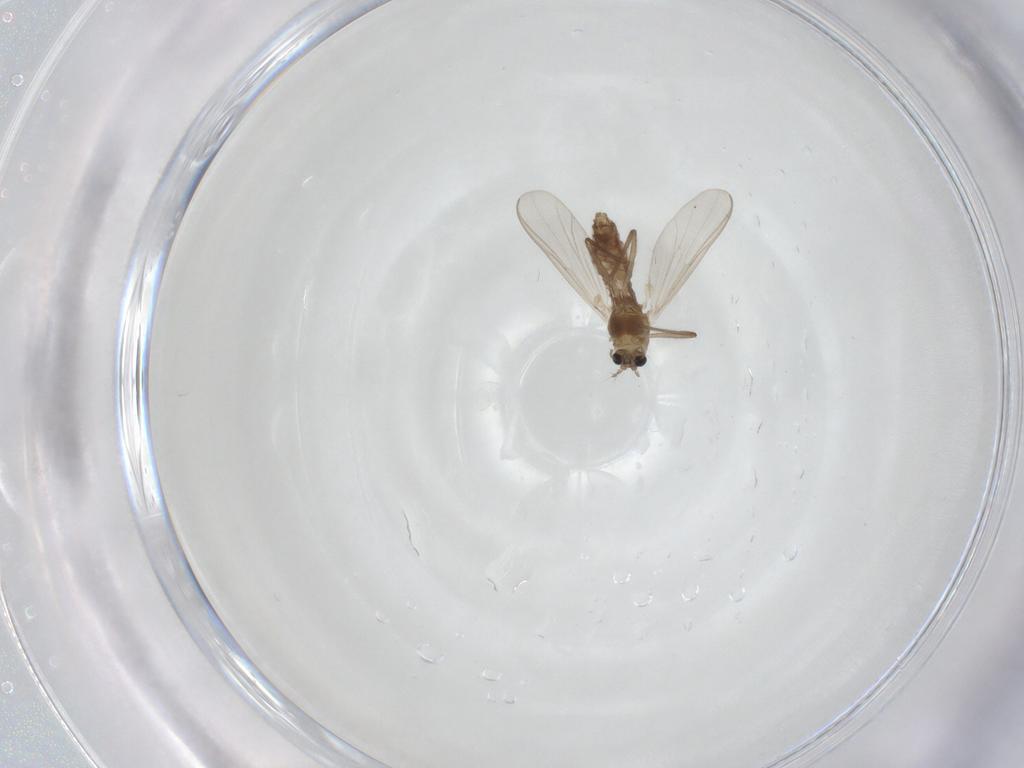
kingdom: Animalia
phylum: Arthropoda
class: Insecta
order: Diptera
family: Chironomidae
